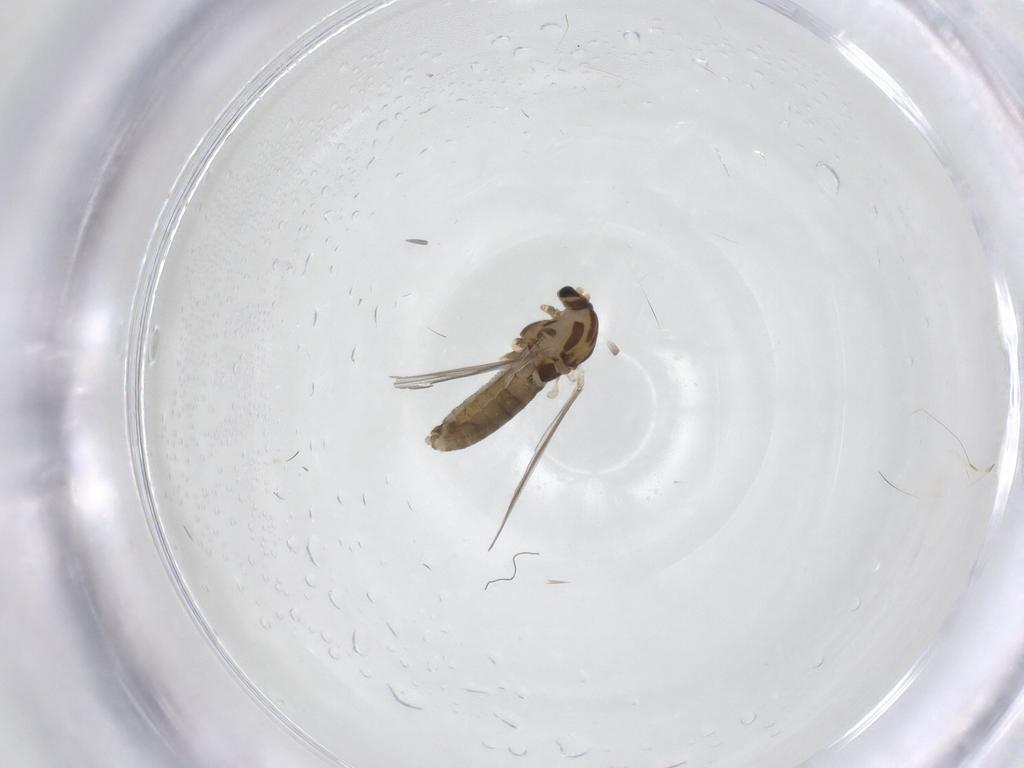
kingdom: Animalia
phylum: Arthropoda
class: Insecta
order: Diptera
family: Chironomidae
